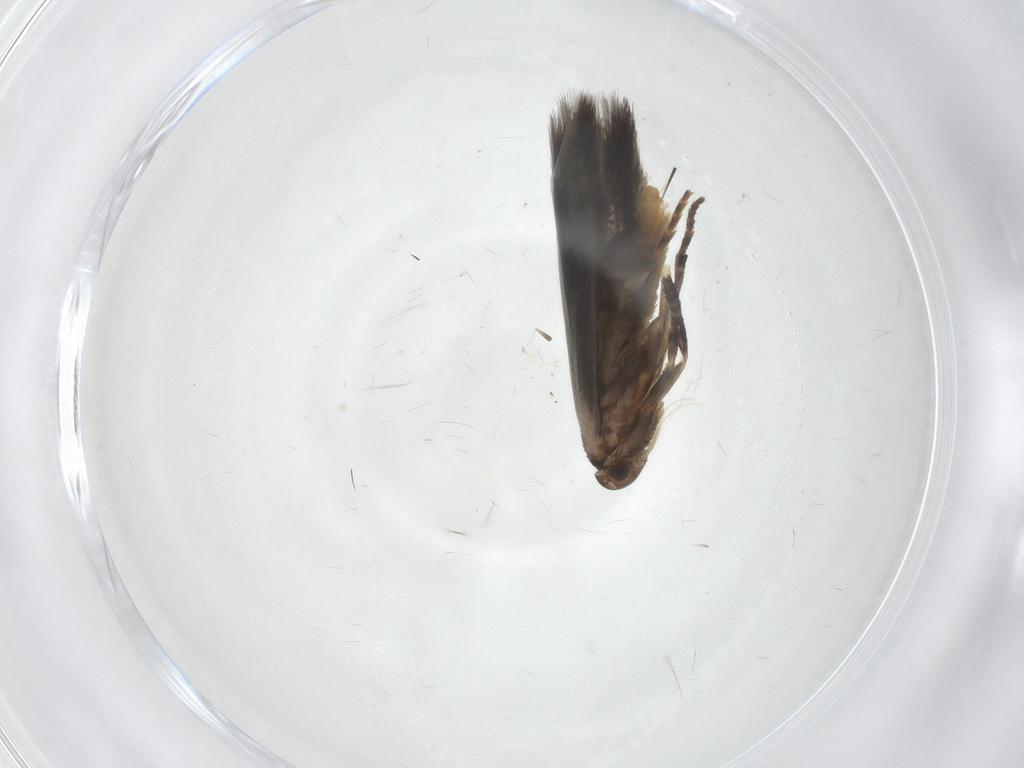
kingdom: Animalia
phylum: Arthropoda
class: Insecta
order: Lepidoptera
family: Elachistidae
